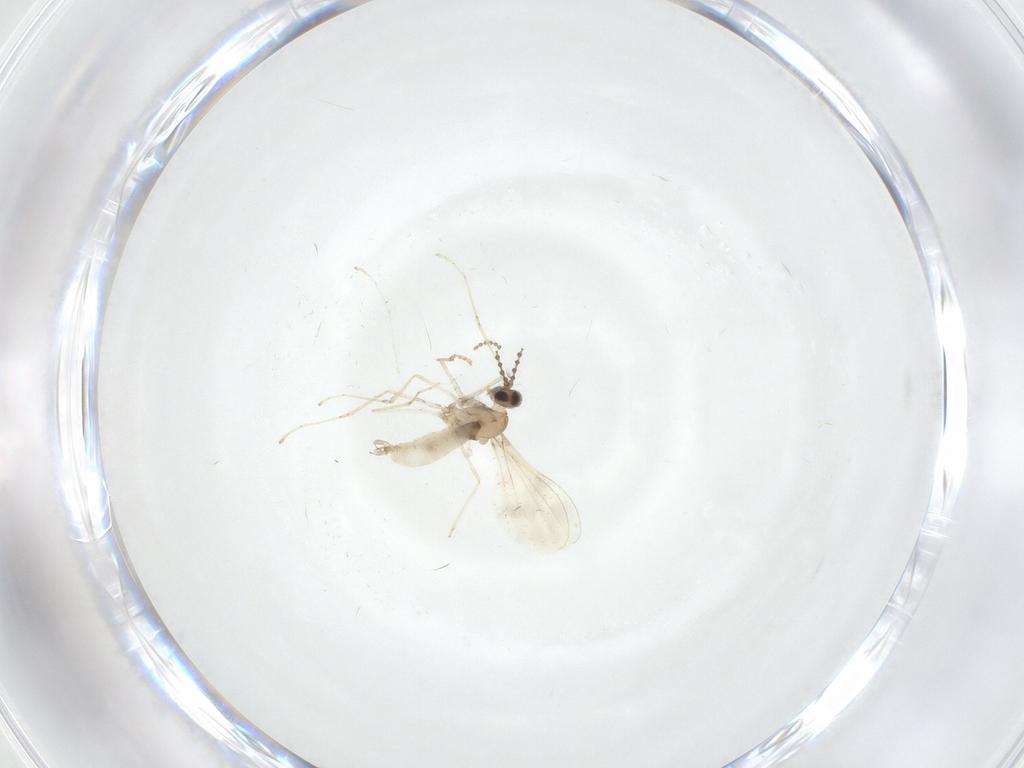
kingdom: Animalia
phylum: Arthropoda
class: Insecta
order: Diptera
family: Cecidomyiidae
